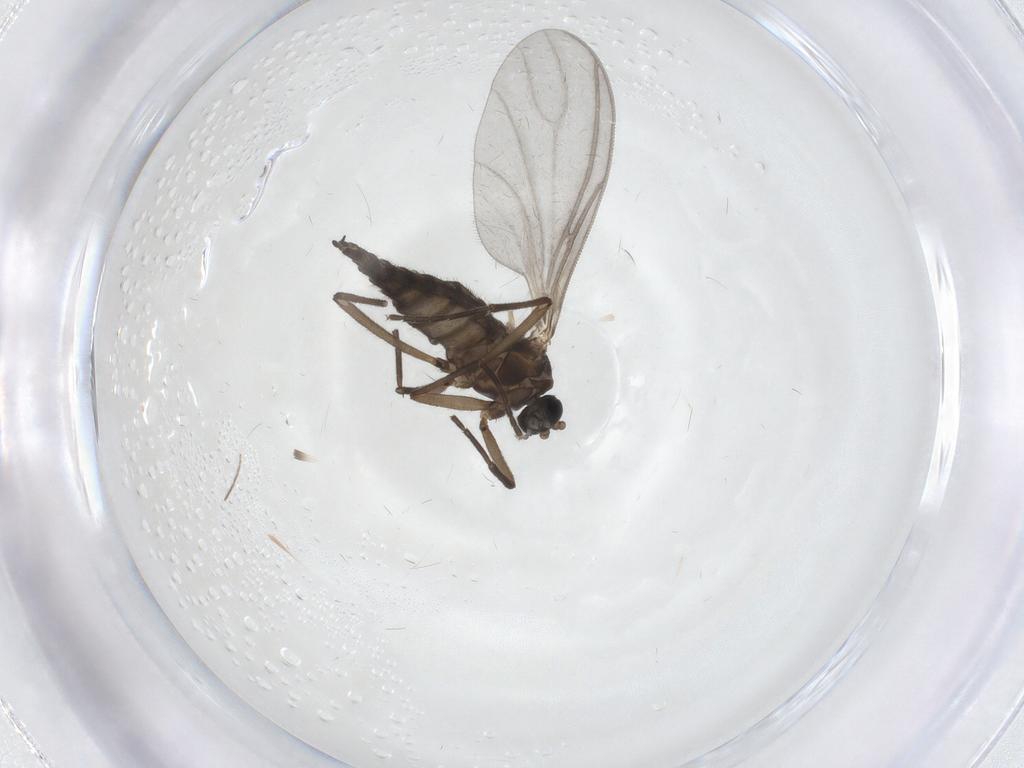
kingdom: Animalia
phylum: Arthropoda
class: Insecta
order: Diptera
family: Sciaridae
